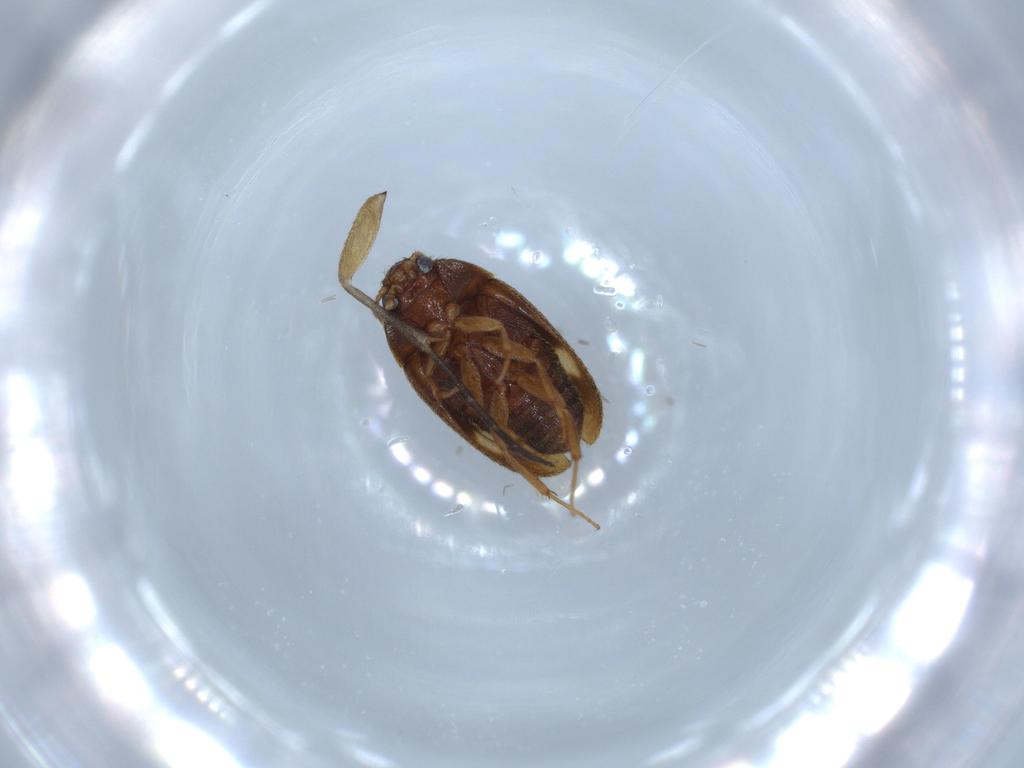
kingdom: Animalia
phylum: Arthropoda
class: Insecta
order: Coleoptera
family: Mycetophagidae
